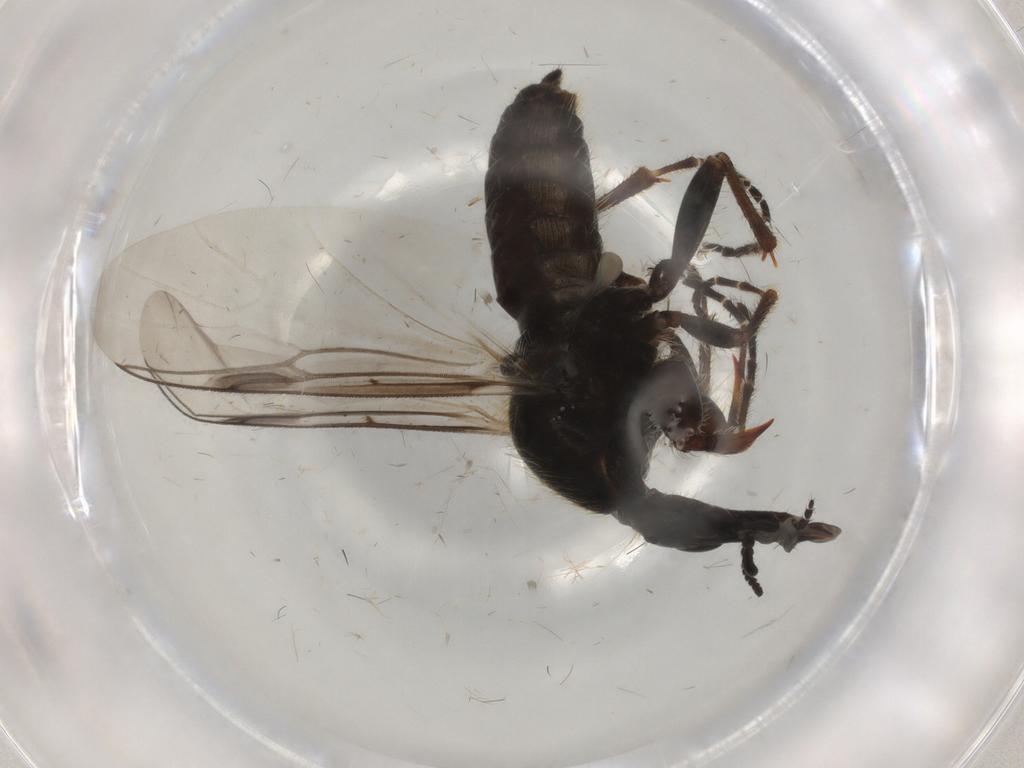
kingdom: Animalia
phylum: Arthropoda
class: Insecta
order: Diptera
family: Bibionidae
